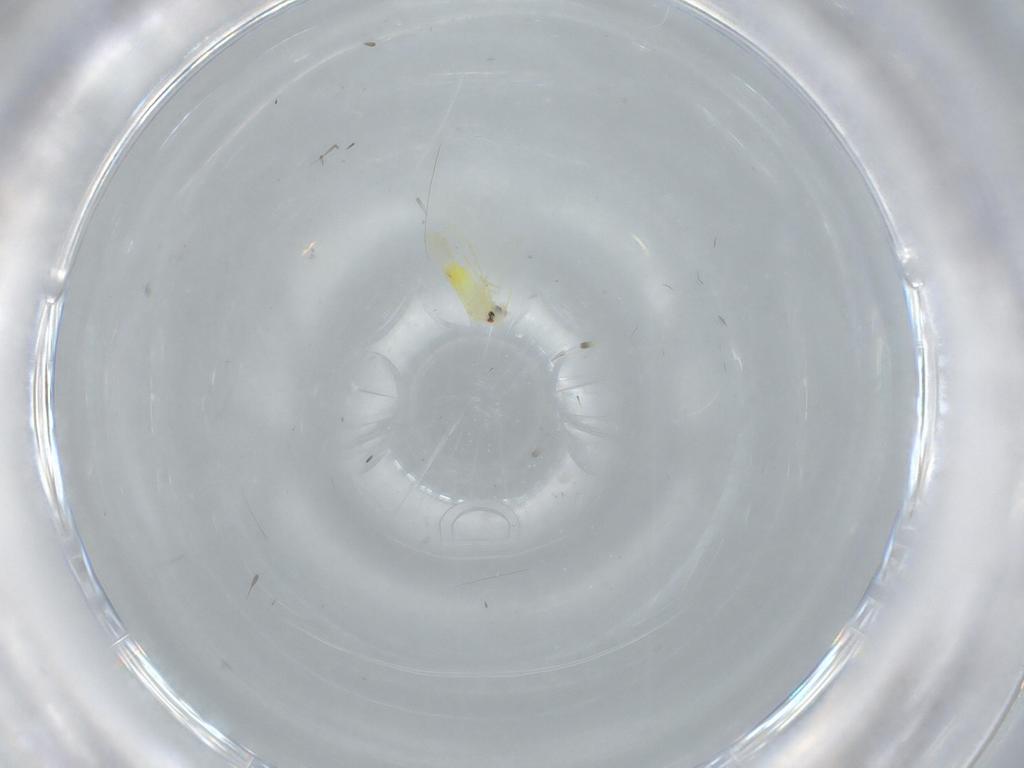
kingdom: Animalia
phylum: Arthropoda
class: Insecta
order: Hemiptera
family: Aleyrodidae
